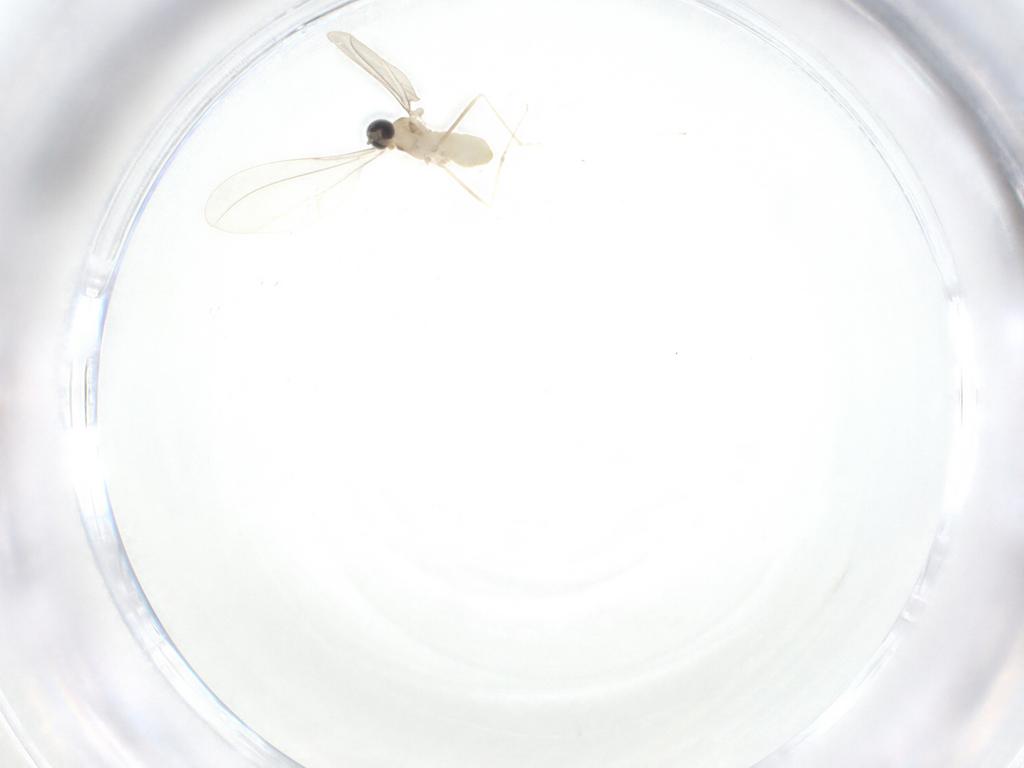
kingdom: Animalia
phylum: Arthropoda
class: Insecta
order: Diptera
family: Cecidomyiidae
